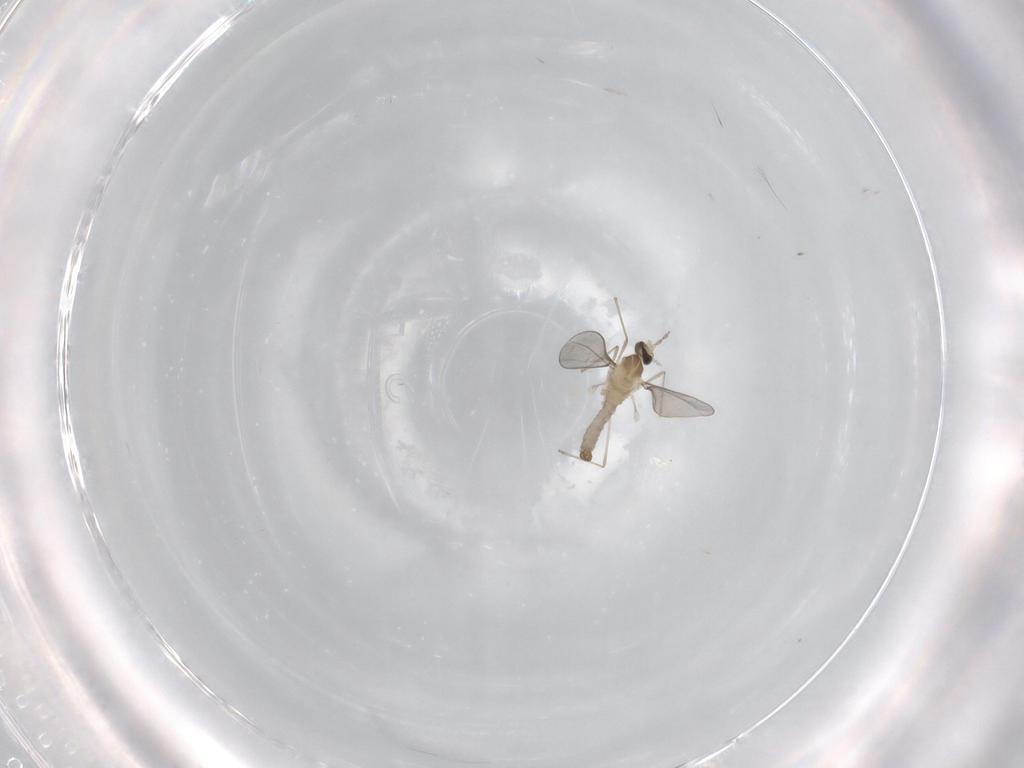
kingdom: Animalia
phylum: Arthropoda
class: Insecta
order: Diptera
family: Cecidomyiidae
